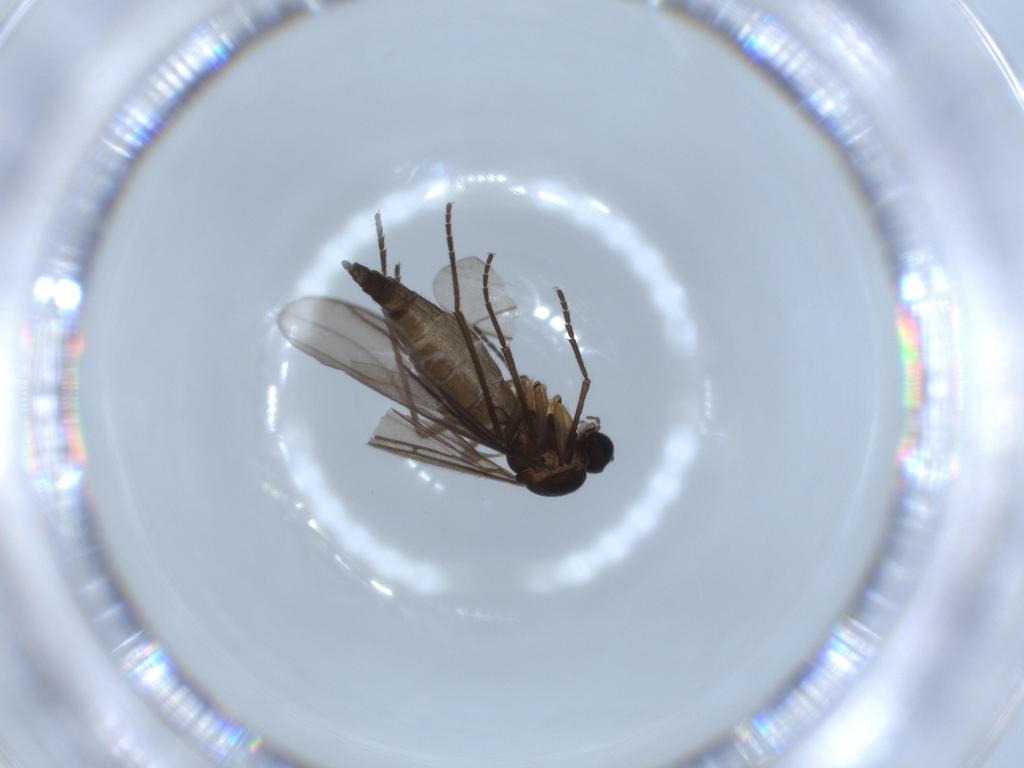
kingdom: Animalia
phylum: Arthropoda
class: Insecta
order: Diptera
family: Sciaridae
